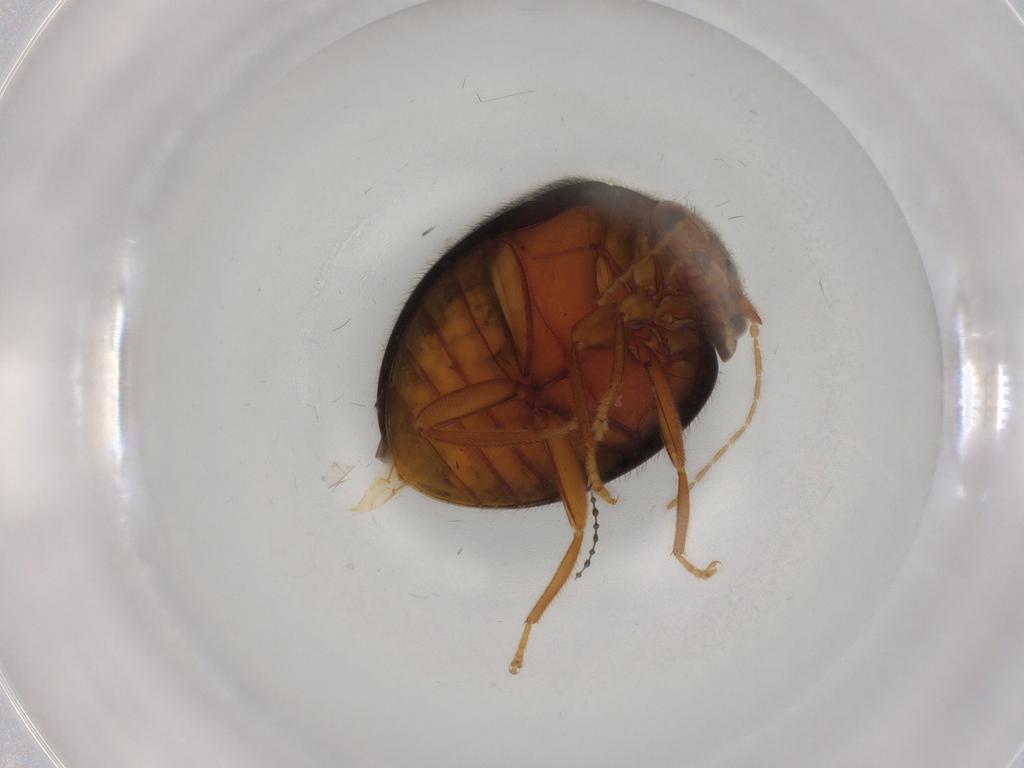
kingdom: Animalia
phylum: Arthropoda
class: Insecta
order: Coleoptera
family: Scirtidae
